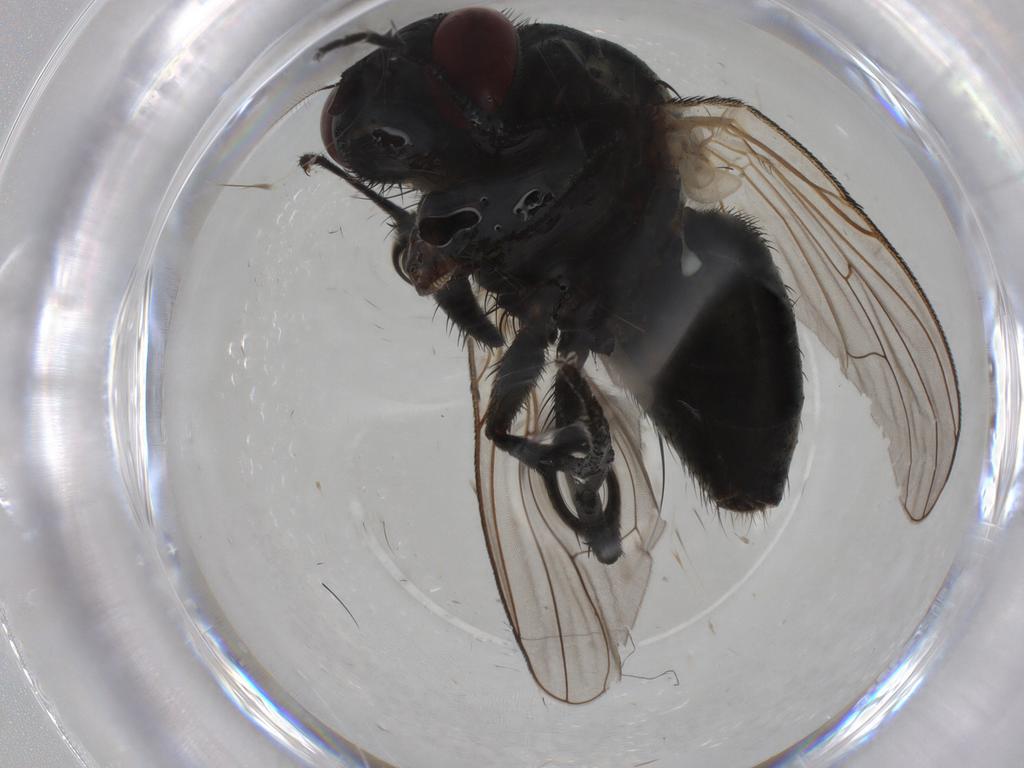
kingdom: Animalia
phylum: Arthropoda
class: Insecta
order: Diptera
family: Muscidae
